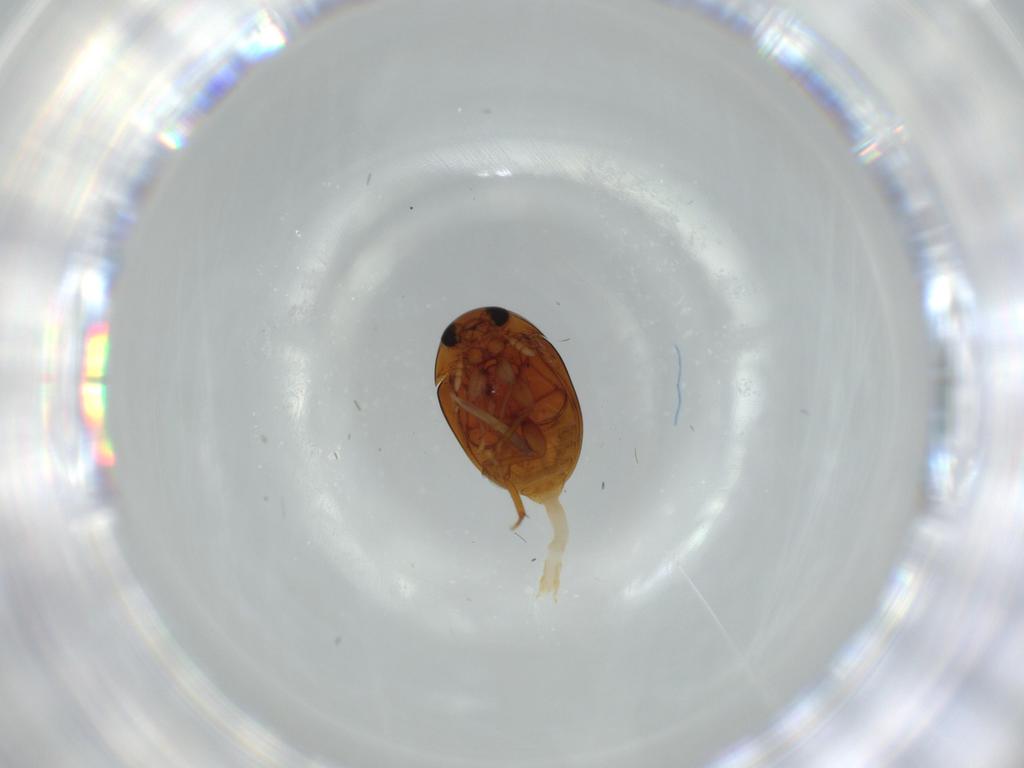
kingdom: Animalia
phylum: Arthropoda
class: Insecta
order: Coleoptera
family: Phalacridae
